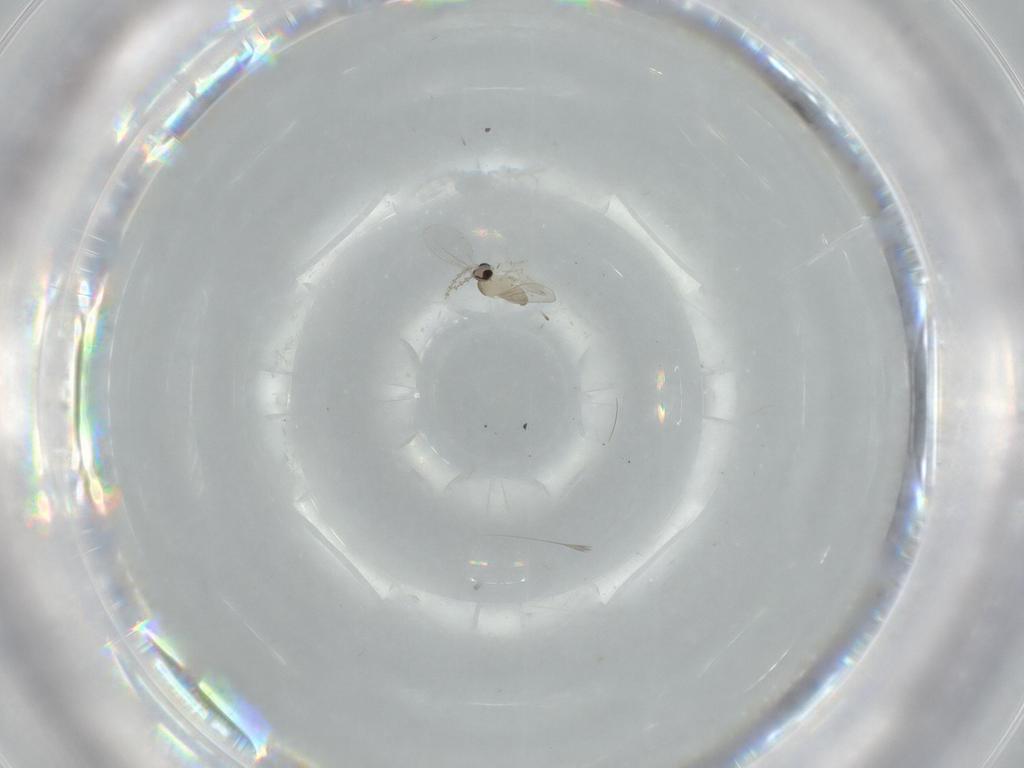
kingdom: Animalia
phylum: Arthropoda
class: Insecta
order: Diptera
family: Cecidomyiidae
